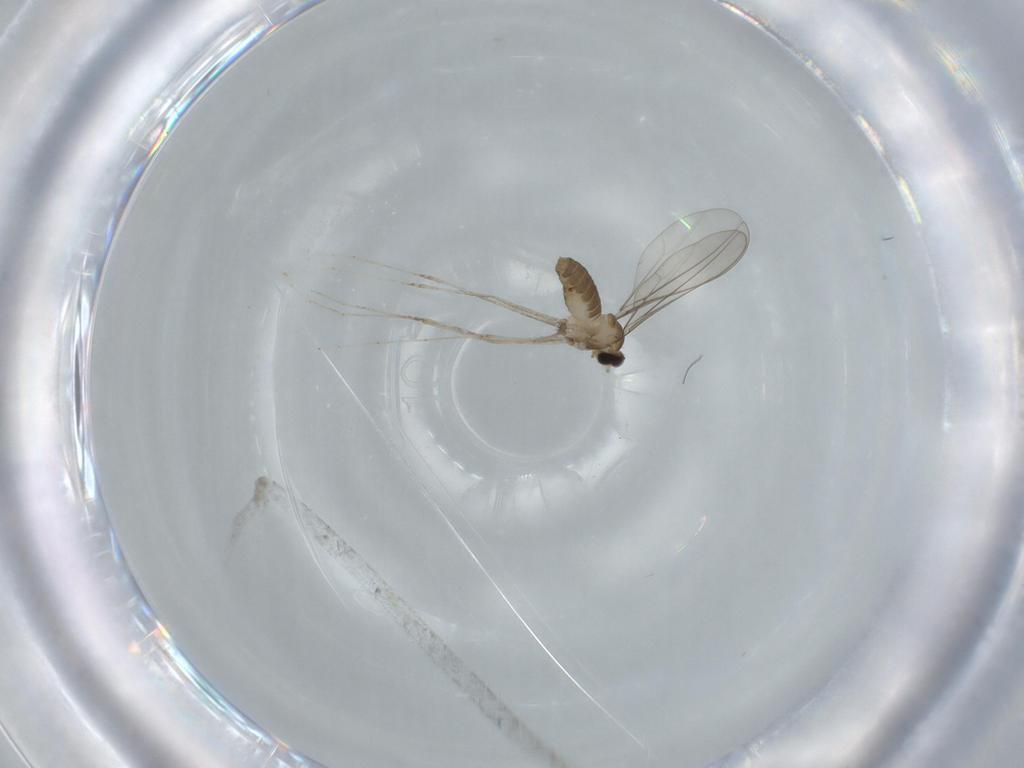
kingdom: Animalia
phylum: Arthropoda
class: Insecta
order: Diptera
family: Cecidomyiidae
